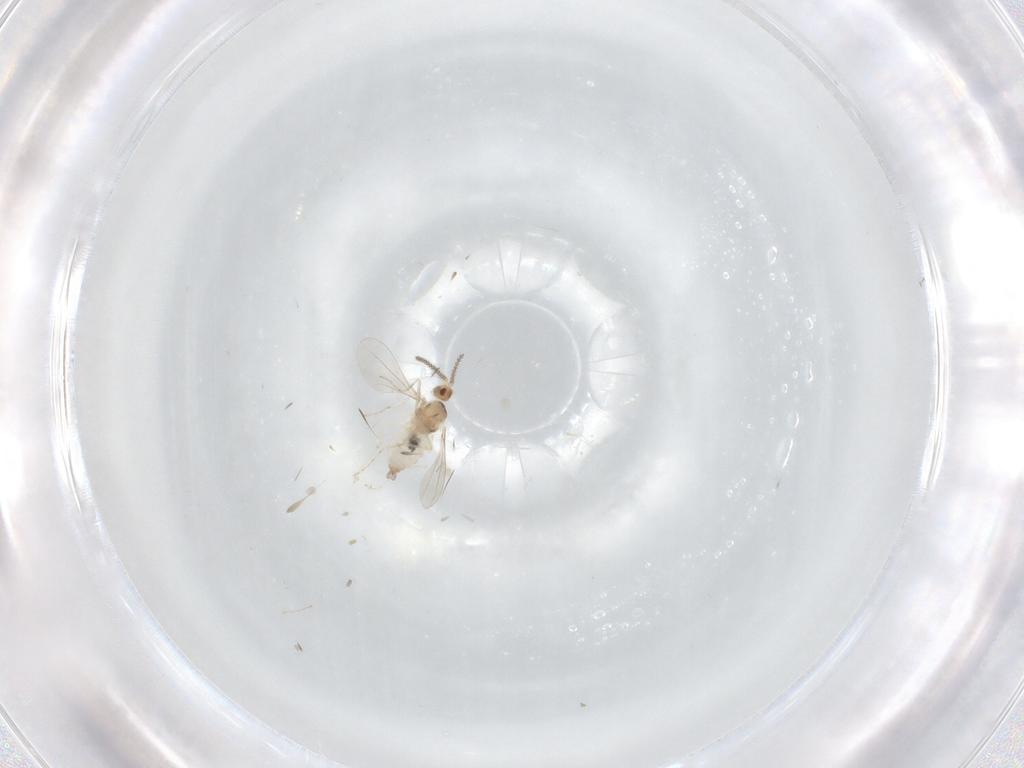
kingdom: Animalia
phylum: Arthropoda
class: Insecta
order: Diptera
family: Cecidomyiidae
